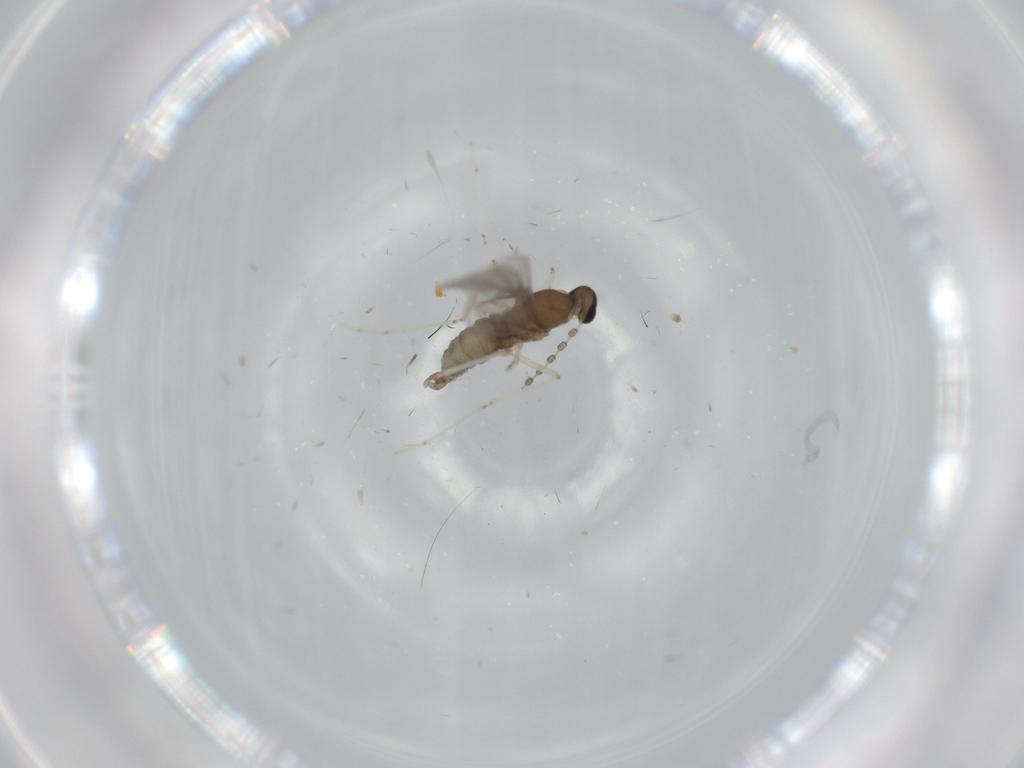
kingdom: Animalia
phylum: Arthropoda
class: Insecta
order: Diptera
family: Cecidomyiidae
